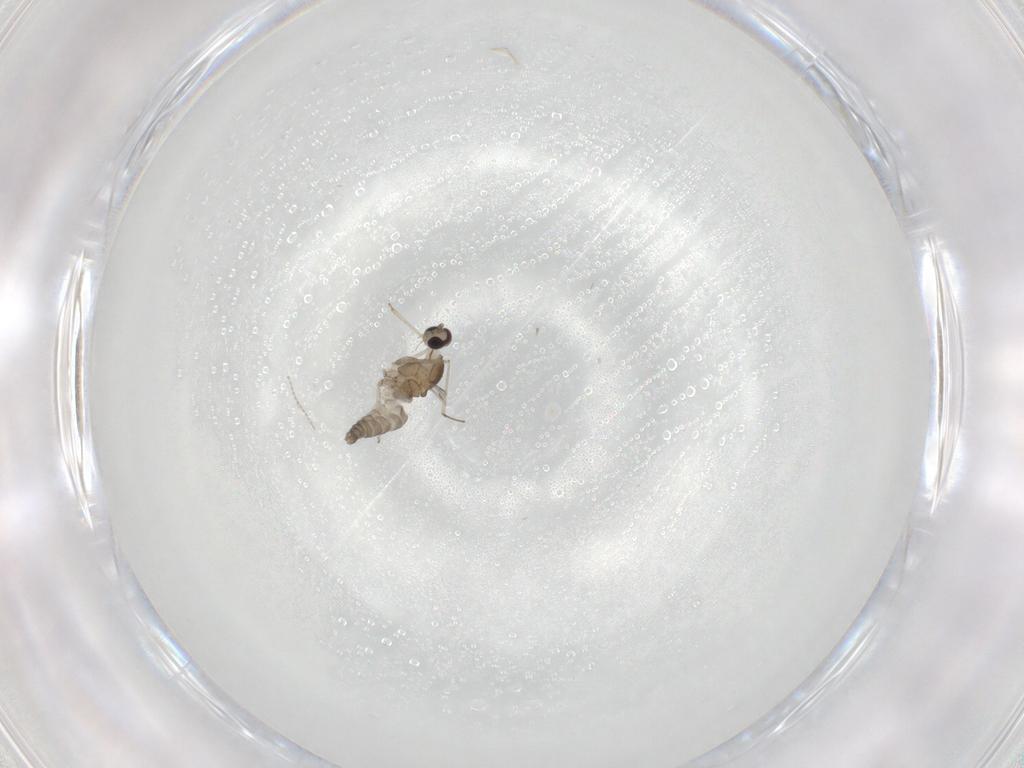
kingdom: Animalia
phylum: Arthropoda
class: Insecta
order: Diptera
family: Cecidomyiidae
